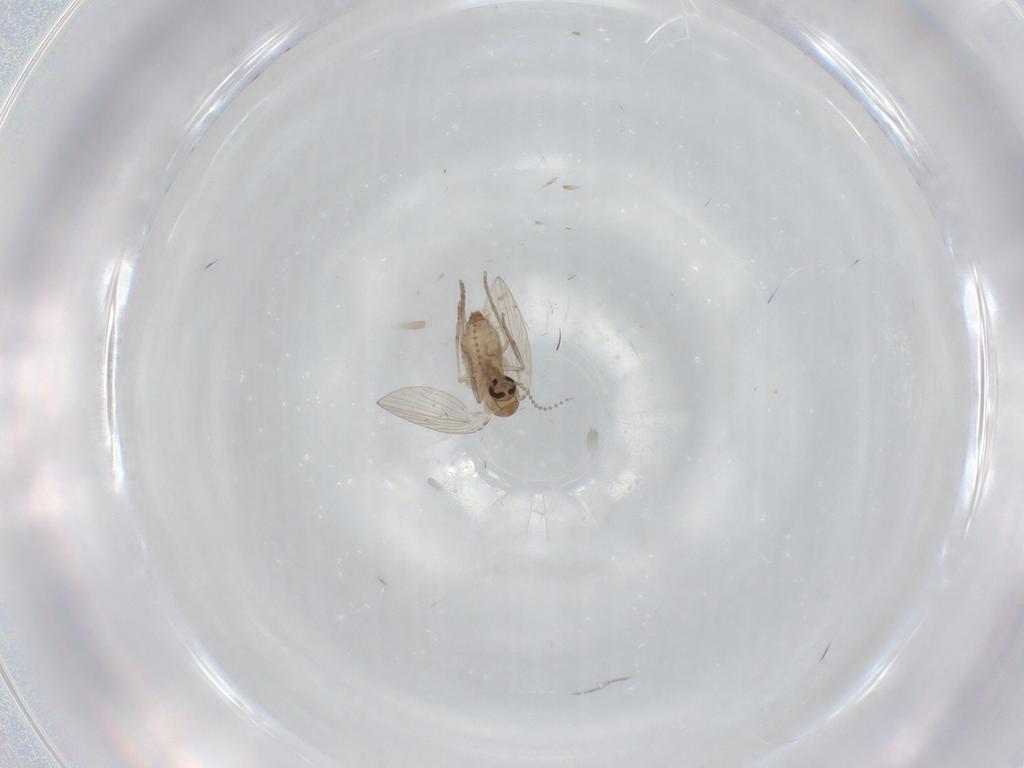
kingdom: Animalia
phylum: Arthropoda
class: Insecta
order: Diptera
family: Psychodidae
